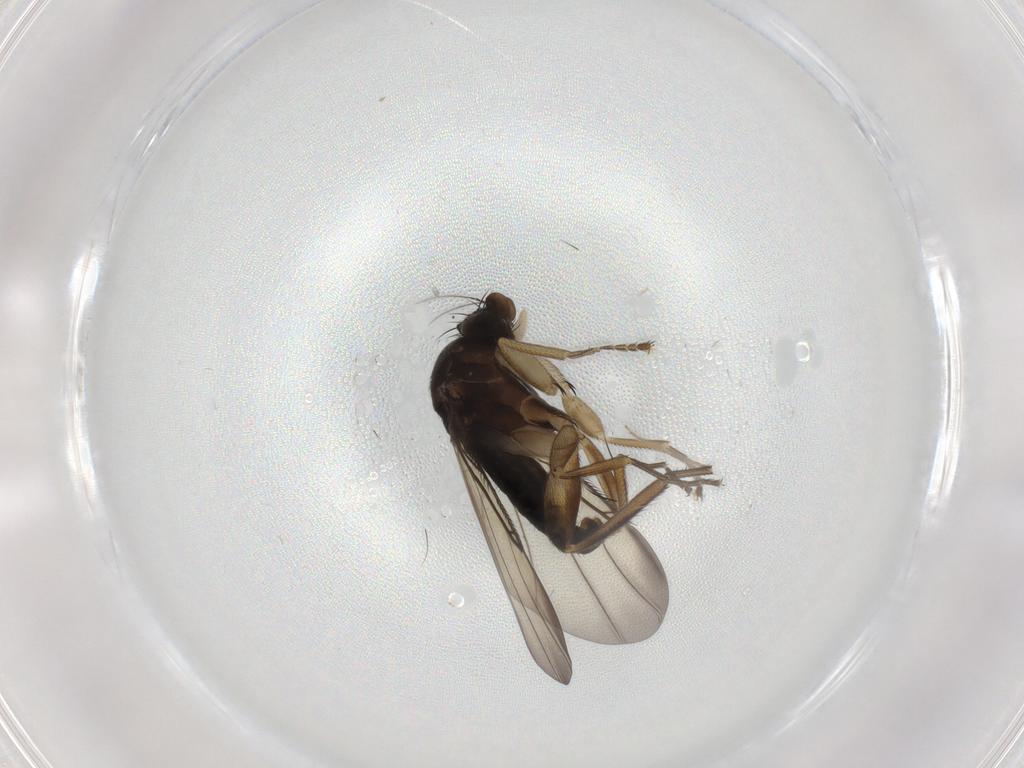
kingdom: Animalia
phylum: Arthropoda
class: Insecta
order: Diptera
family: Phoridae
